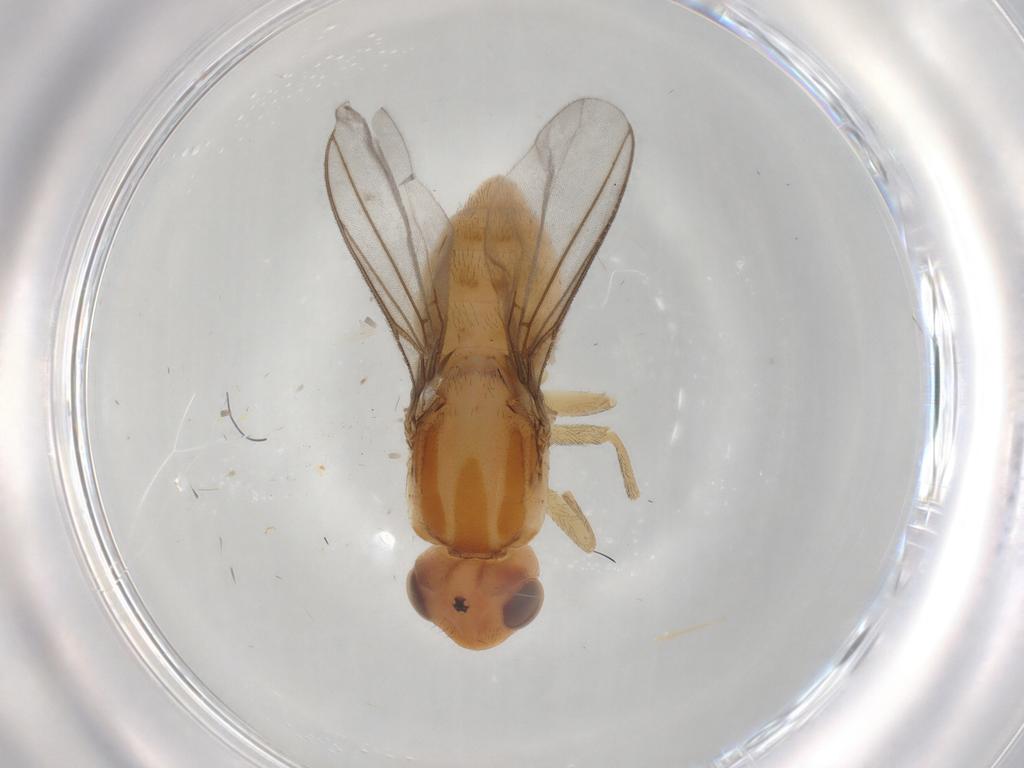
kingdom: Animalia
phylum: Arthropoda
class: Insecta
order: Diptera
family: Chloropidae
